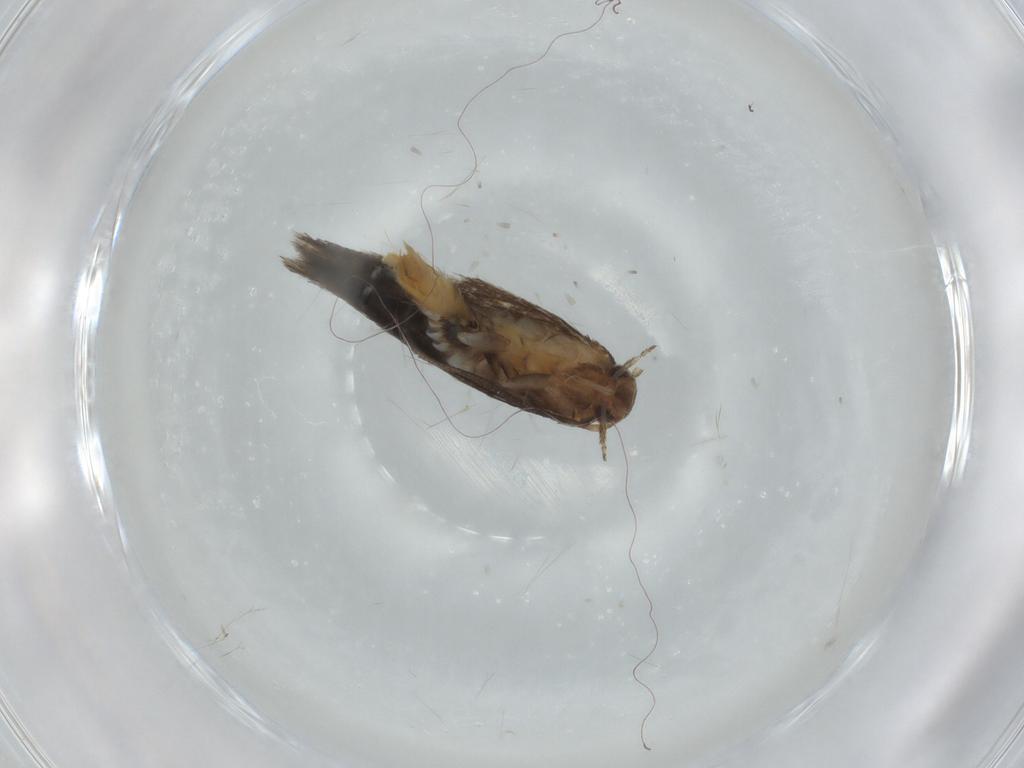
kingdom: Animalia
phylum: Arthropoda
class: Insecta
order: Lepidoptera
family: Elachistidae
